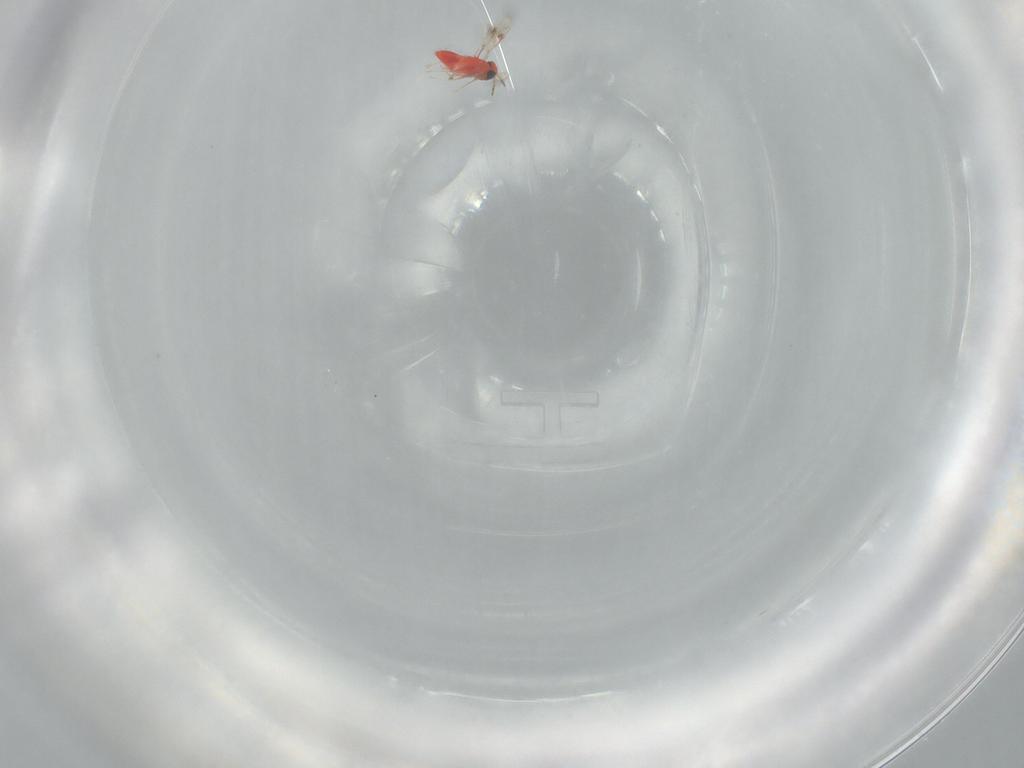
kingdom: Animalia
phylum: Arthropoda
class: Insecta
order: Hymenoptera
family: Trichogrammatidae
